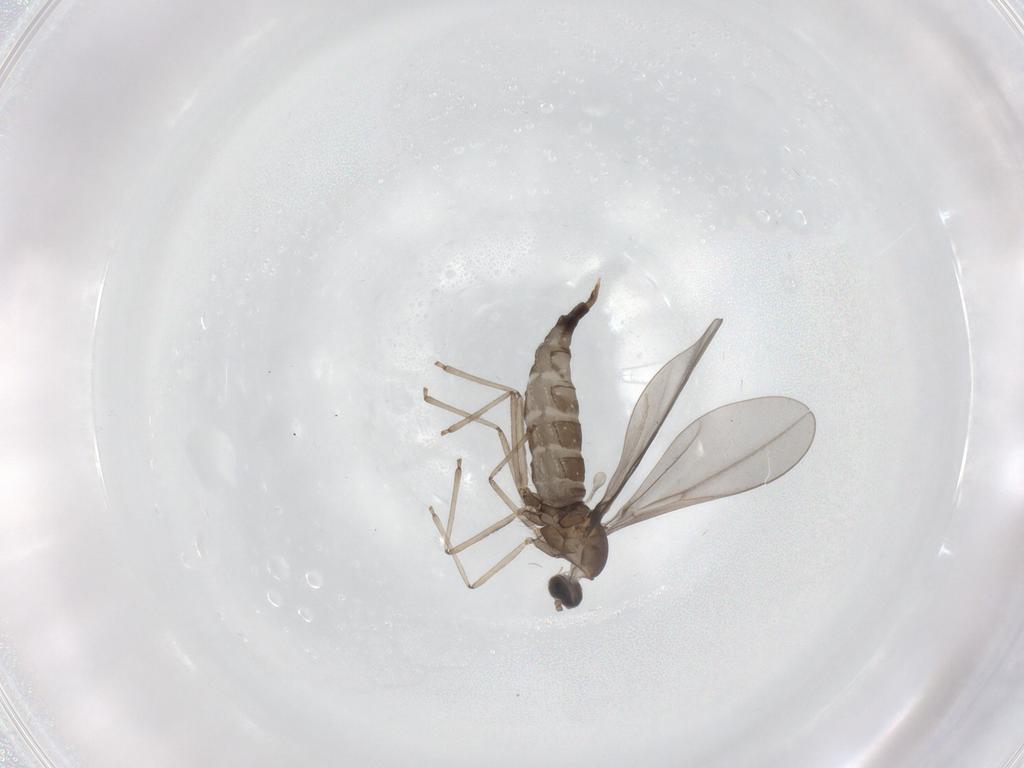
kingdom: Animalia
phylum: Arthropoda
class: Insecta
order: Diptera
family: Cecidomyiidae
